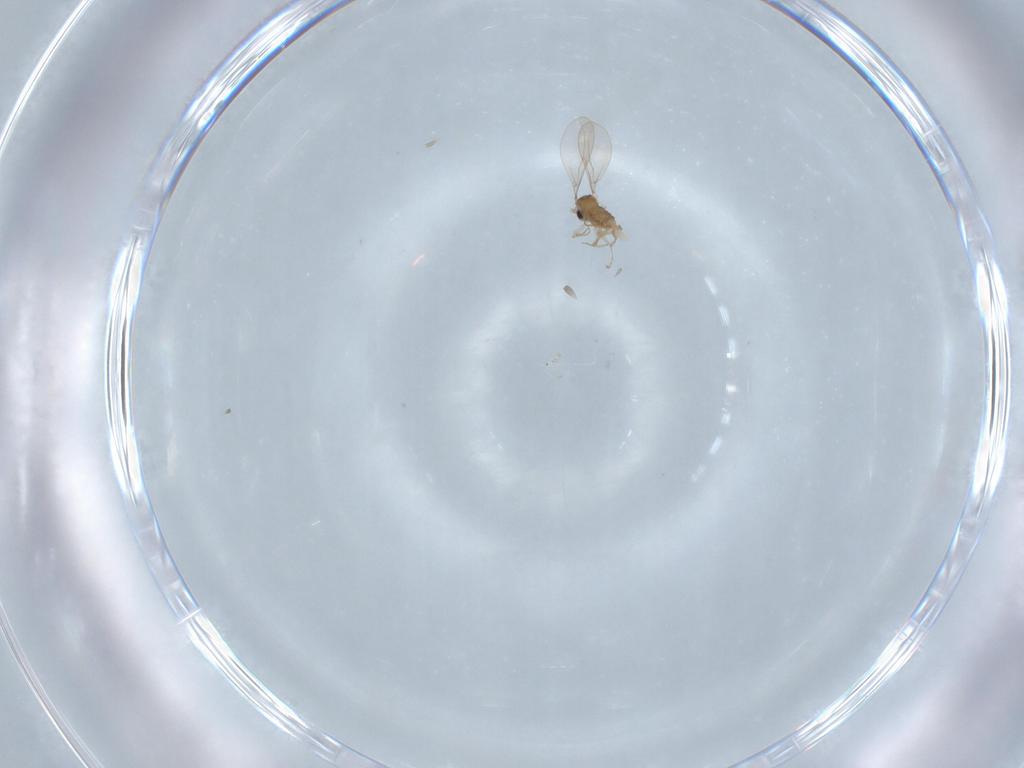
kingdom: Animalia
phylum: Arthropoda
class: Insecta
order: Diptera
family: Cecidomyiidae
